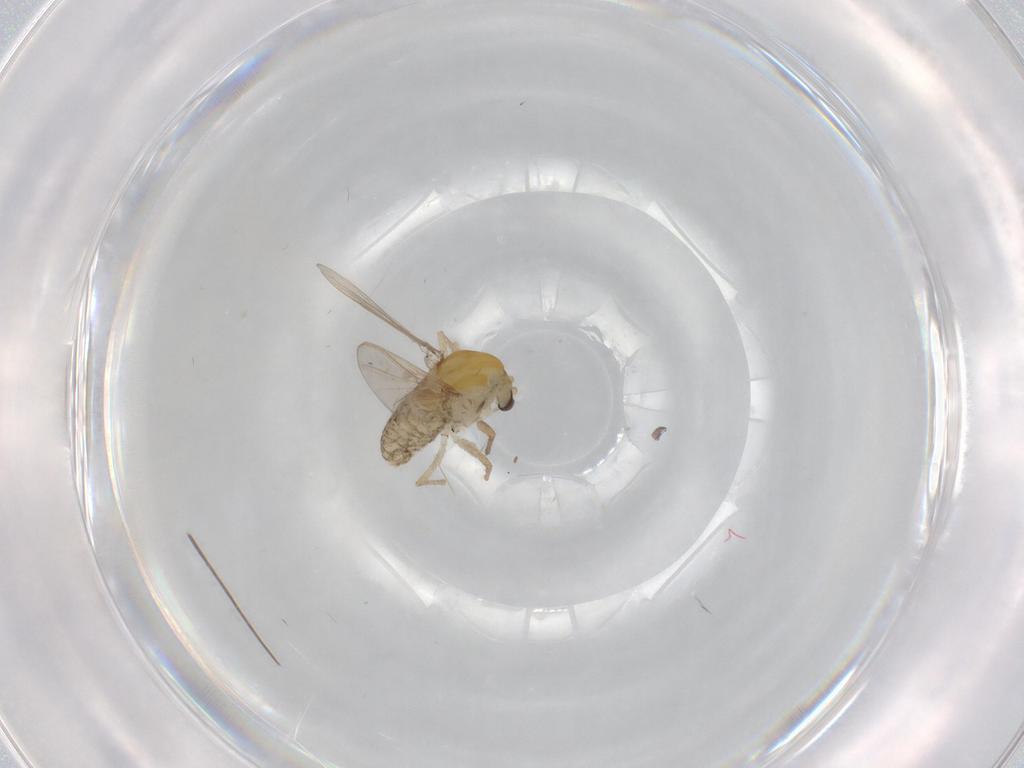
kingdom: Animalia
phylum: Arthropoda
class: Insecta
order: Diptera
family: Chironomidae
